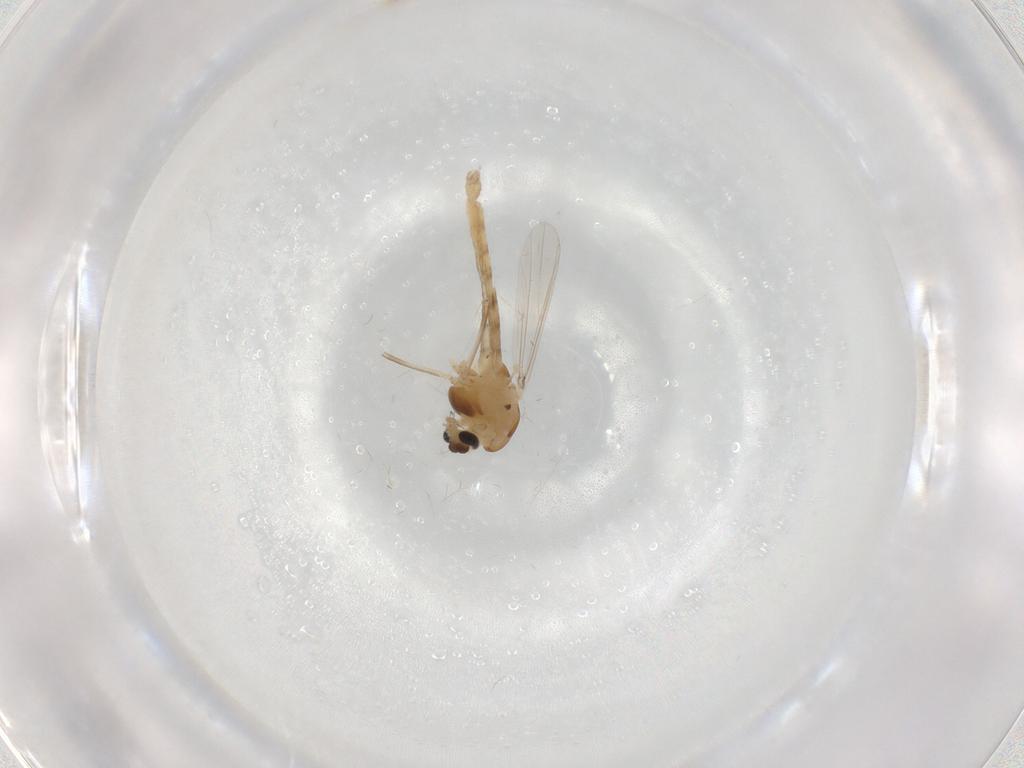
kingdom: Animalia
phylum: Arthropoda
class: Insecta
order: Diptera
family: Chironomidae
